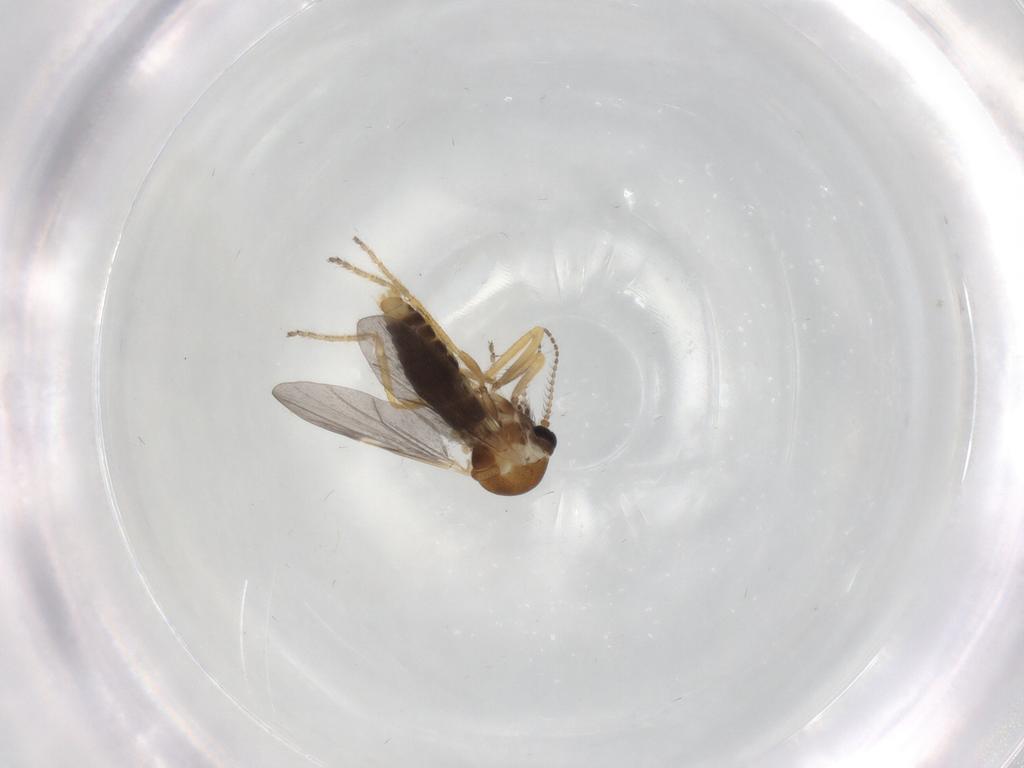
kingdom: Animalia
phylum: Arthropoda
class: Insecta
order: Diptera
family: Ceratopogonidae
